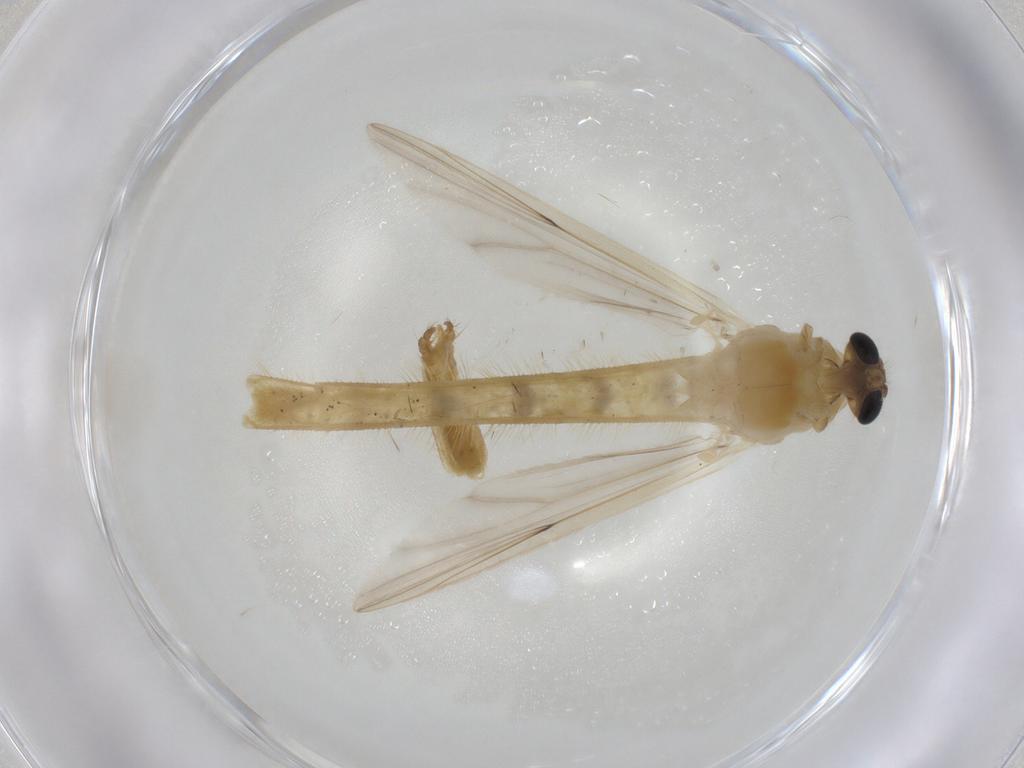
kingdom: Animalia
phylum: Arthropoda
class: Insecta
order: Diptera
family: Chironomidae
